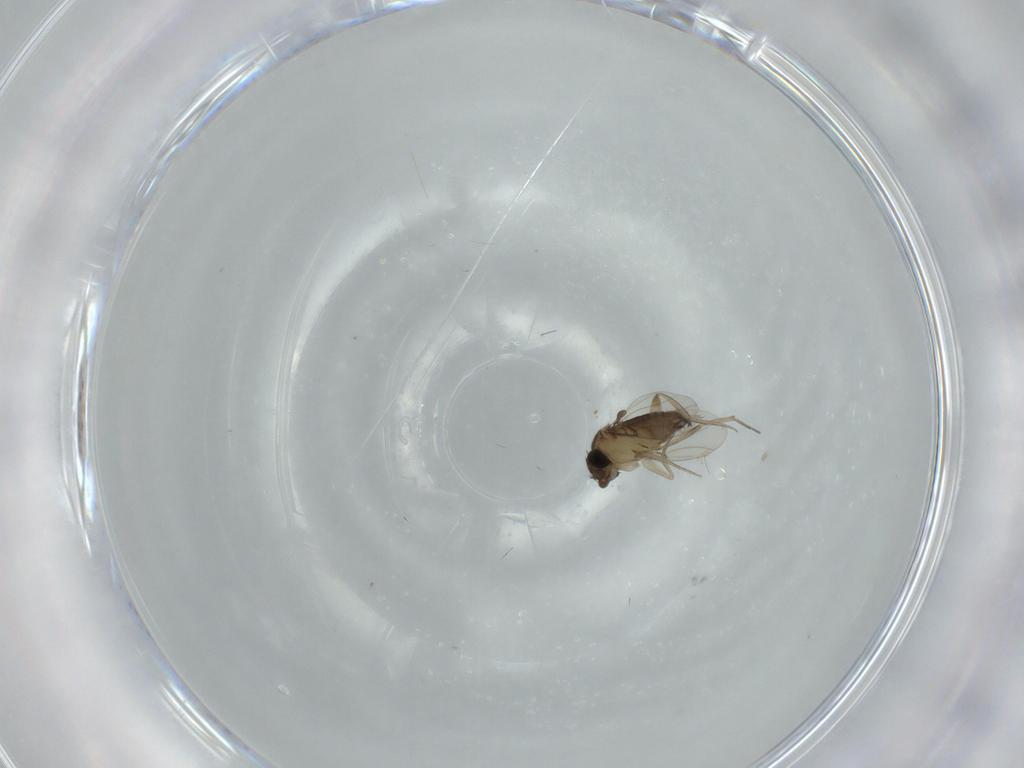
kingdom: Animalia
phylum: Arthropoda
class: Insecta
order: Diptera
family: Phoridae
